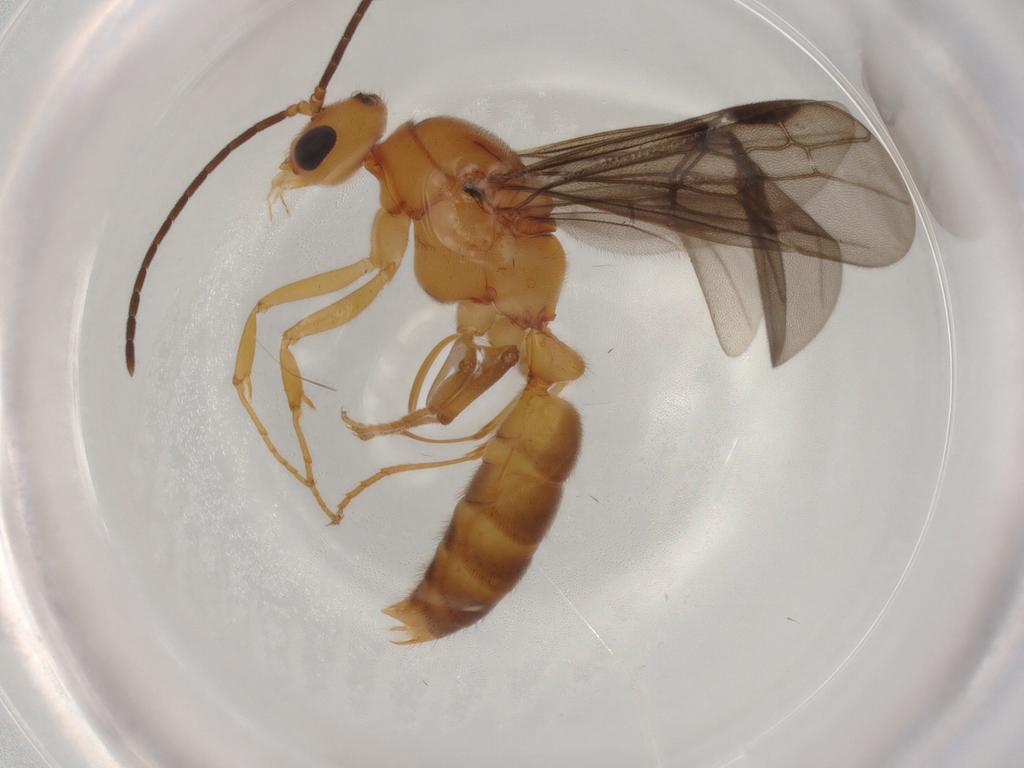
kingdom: Animalia
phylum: Arthropoda
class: Insecta
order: Hymenoptera
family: Formicidae
